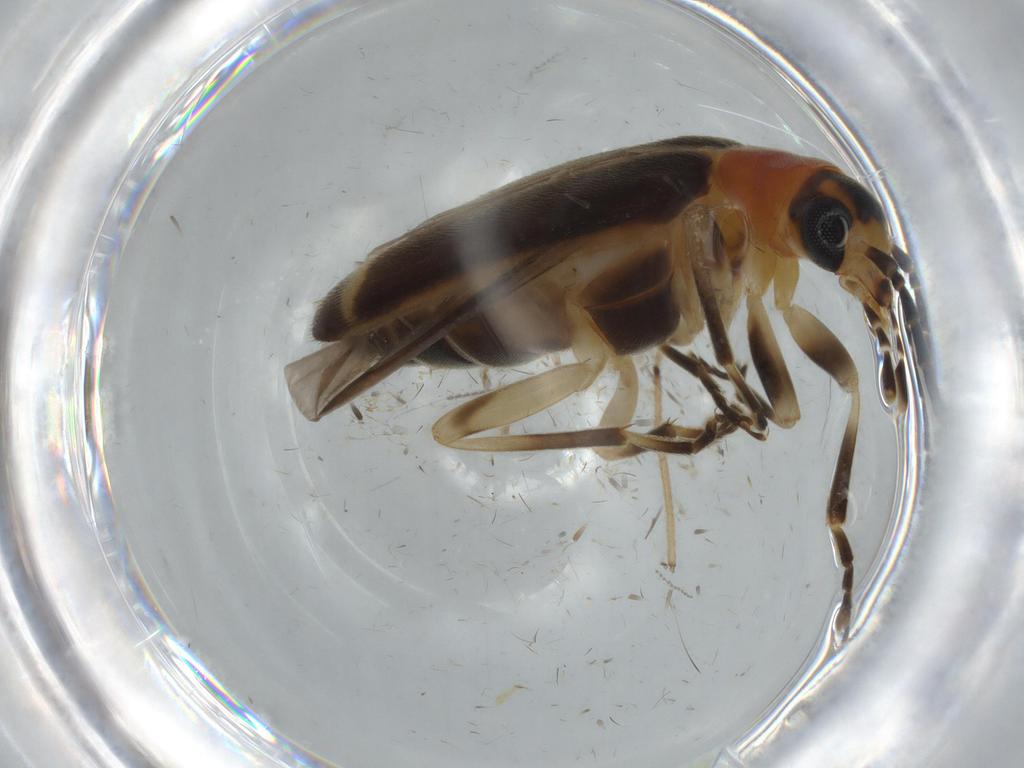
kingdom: Animalia
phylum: Arthropoda
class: Insecta
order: Coleoptera
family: Oedemeridae
